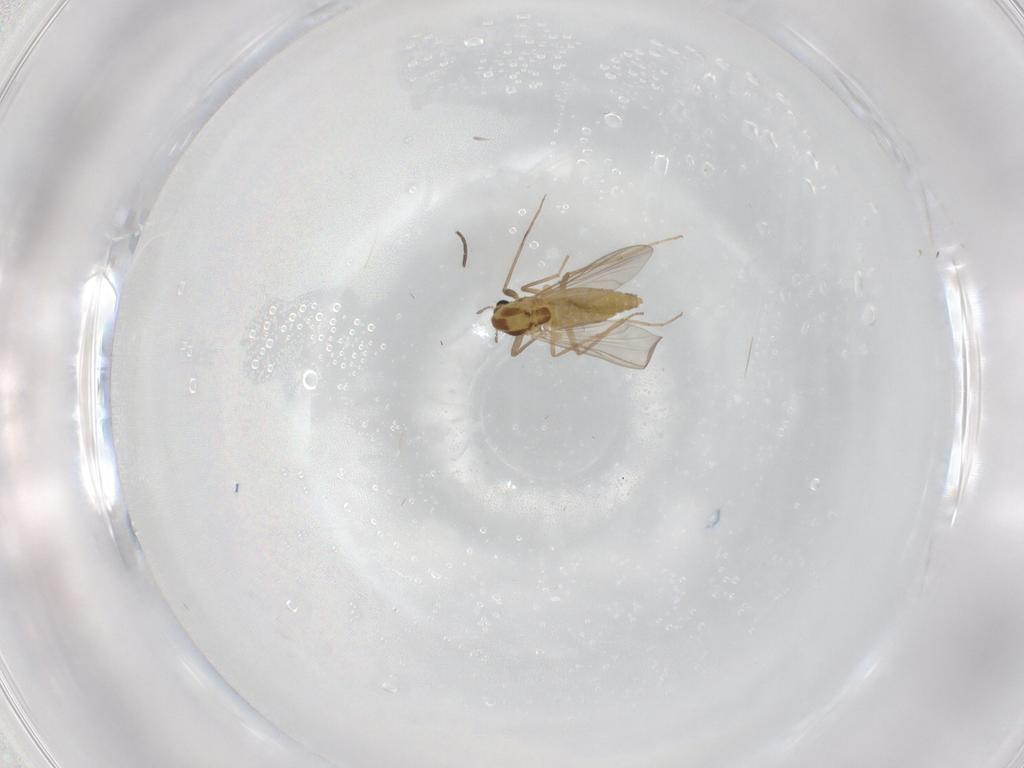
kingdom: Animalia
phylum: Arthropoda
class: Insecta
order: Diptera
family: Chironomidae
